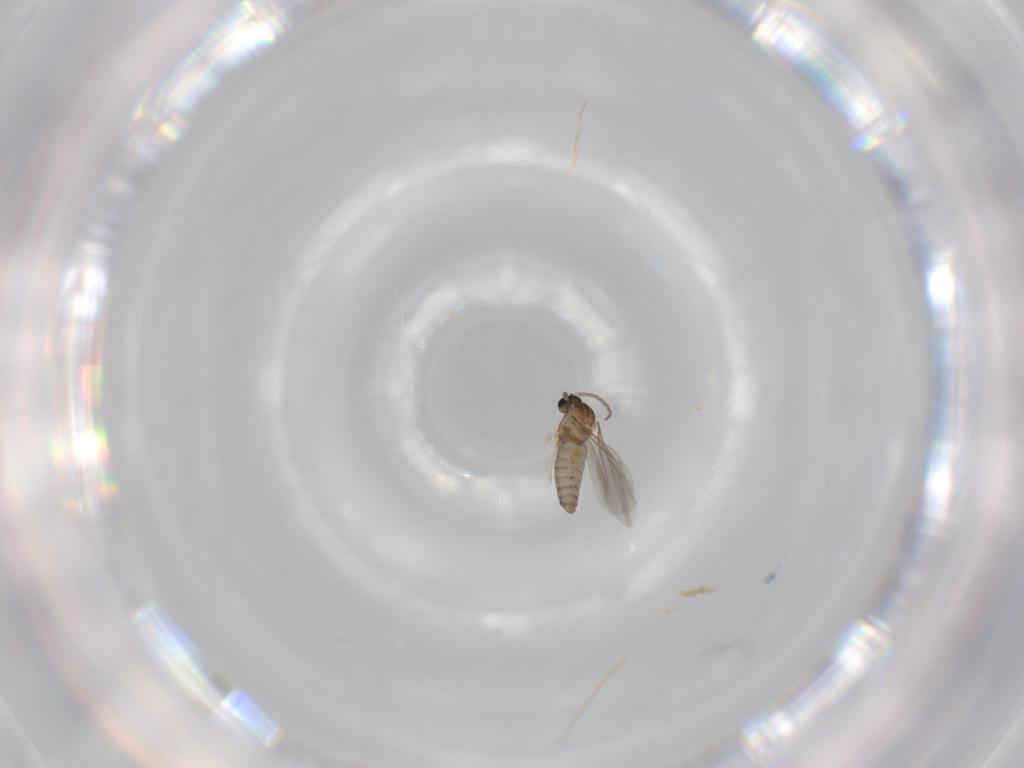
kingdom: Animalia
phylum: Arthropoda
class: Insecta
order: Diptera
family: Cecidomyiidae
